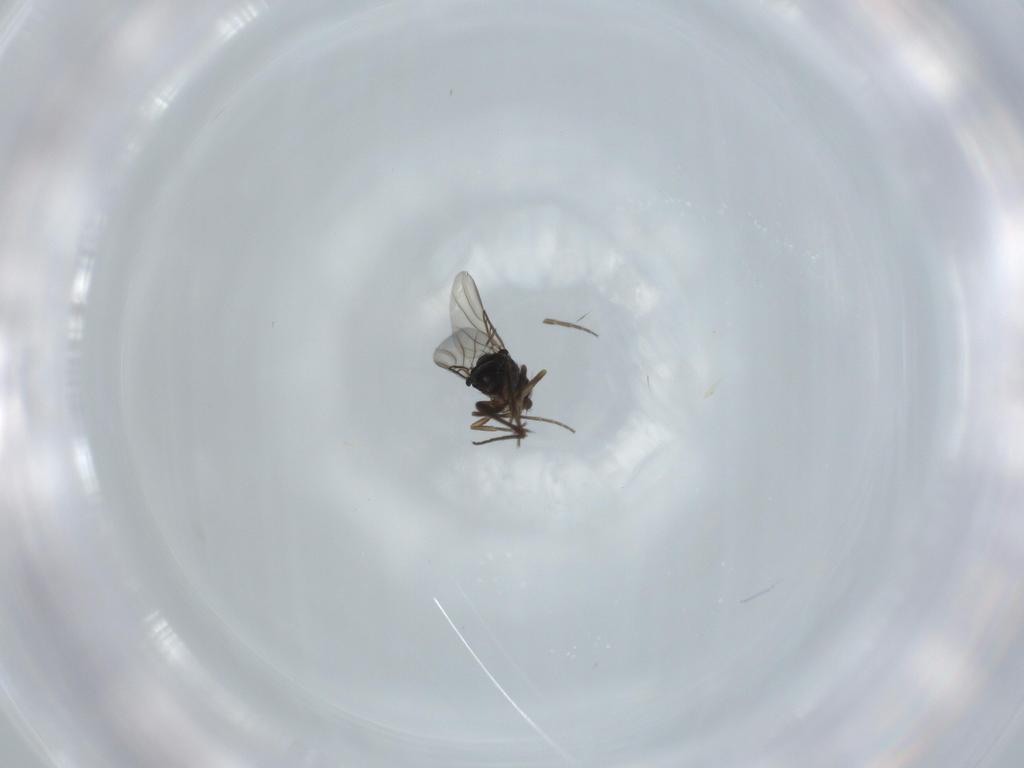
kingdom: Animalia
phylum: Arthropoda
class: Insecta
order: Diptera
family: Phoridae
